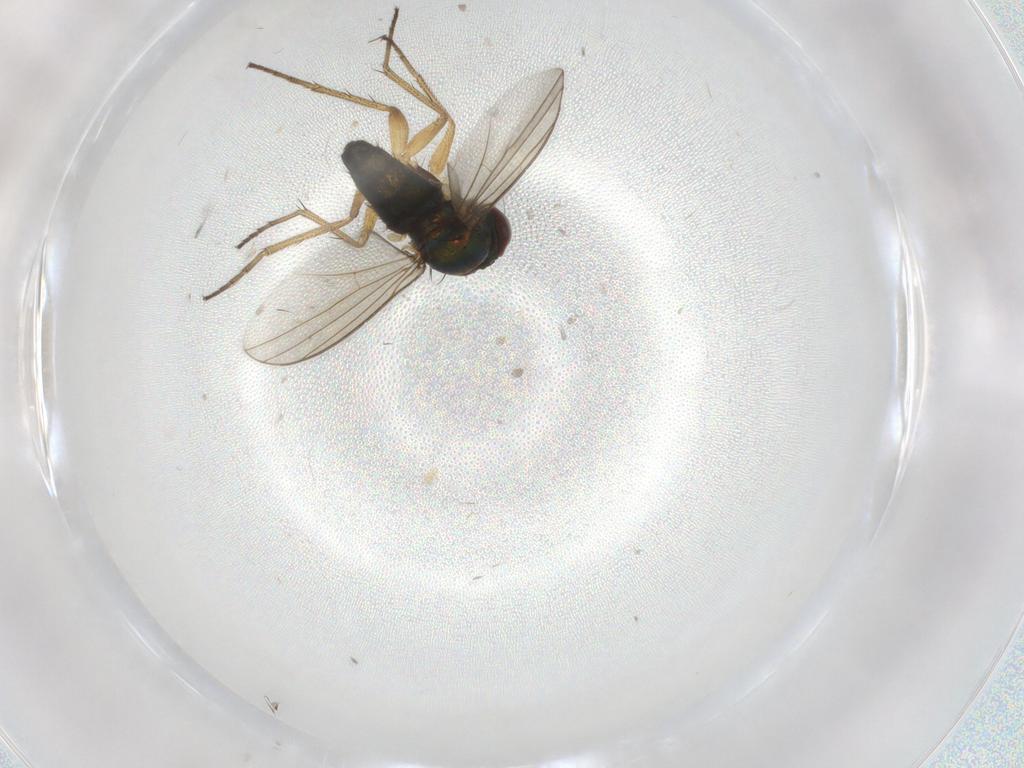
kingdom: Animalia
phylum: Arthropoda
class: Insecta
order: Diptera
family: Dolichopodidae
